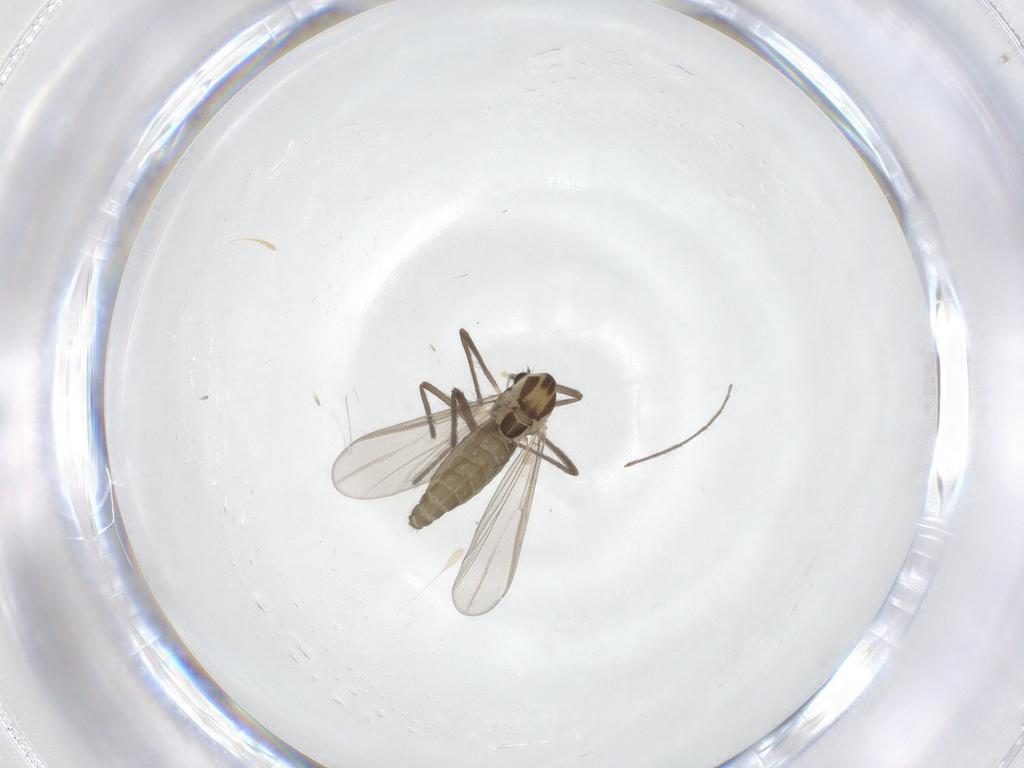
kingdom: Animalia
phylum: Arthropoda
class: Insecta
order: Diptera
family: Chironomidae
